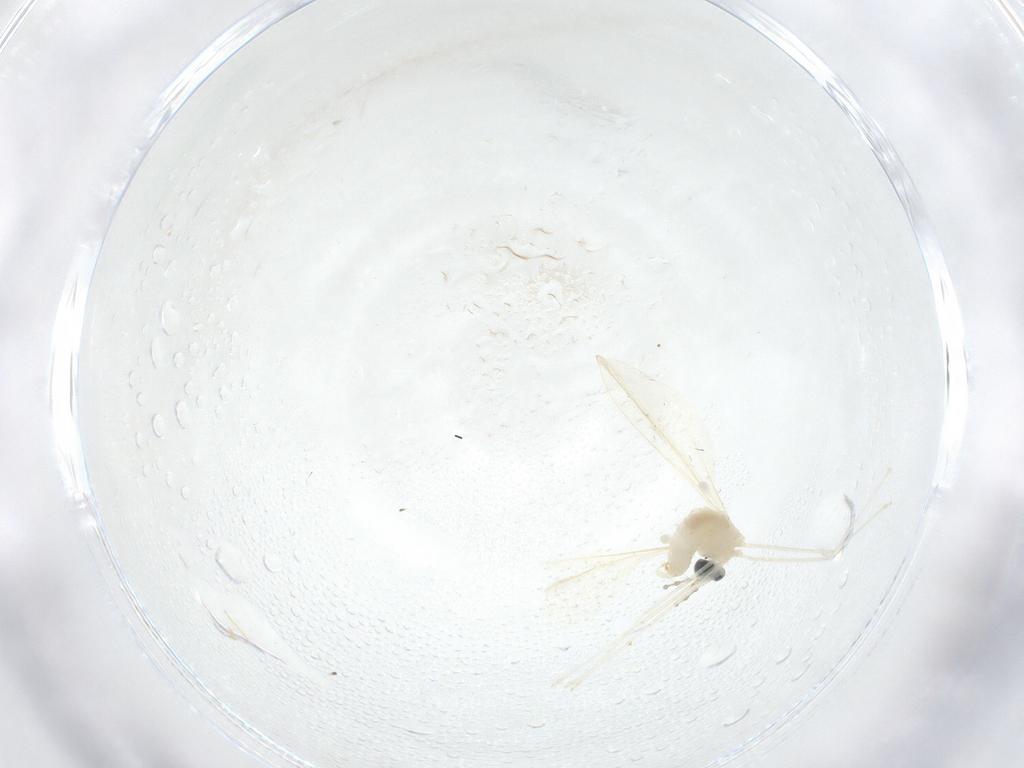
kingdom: Animalia
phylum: Arthropoda
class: Insecta
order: Diptera
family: Cecidomyiidae
